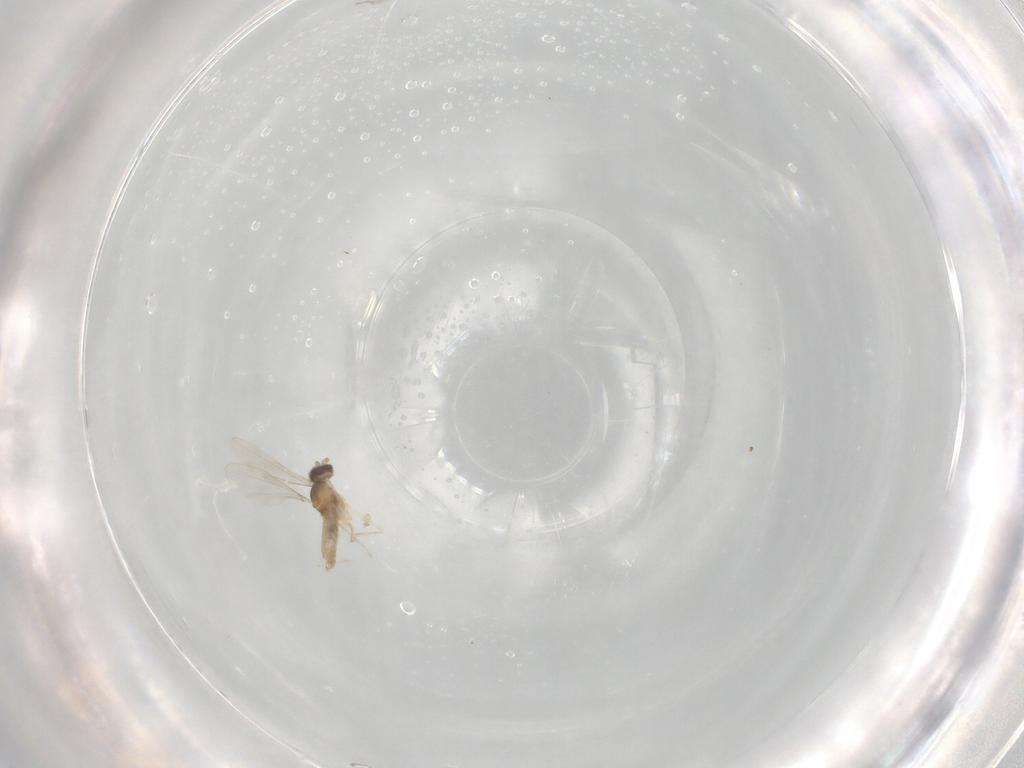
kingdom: Animalia
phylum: Arthropoda
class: Insecta
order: Diptera
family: Cecidomyiidae
